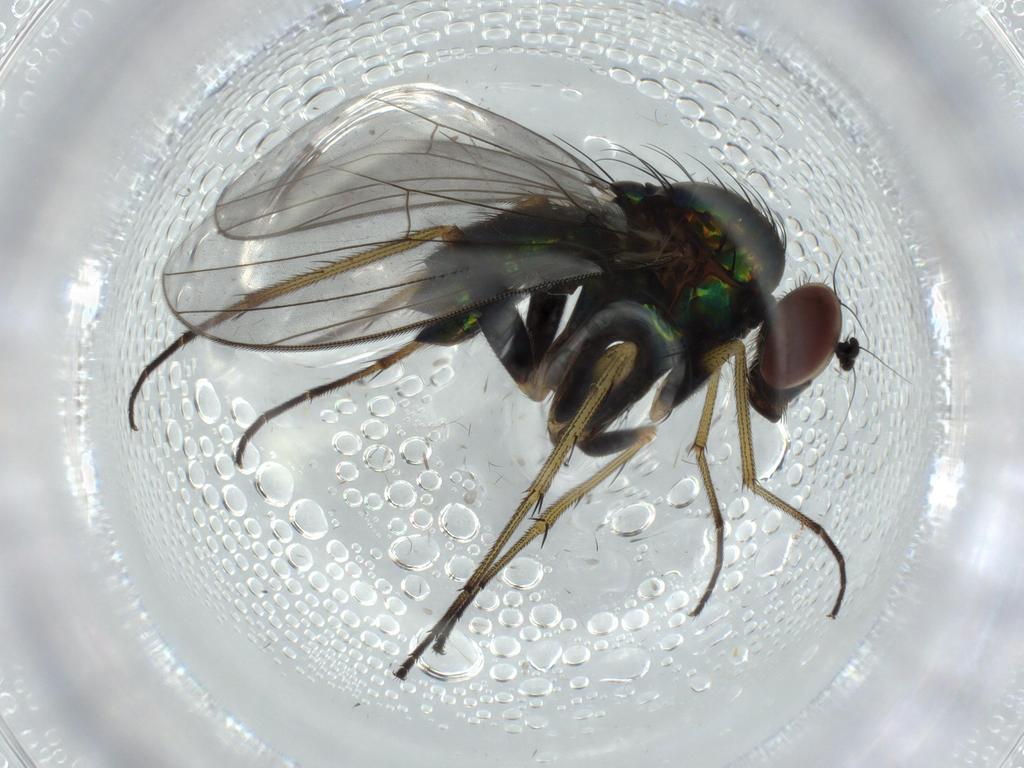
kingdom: Animalia
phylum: Arthropoda
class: Insecta
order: Diptera
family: Dolichopodidae
